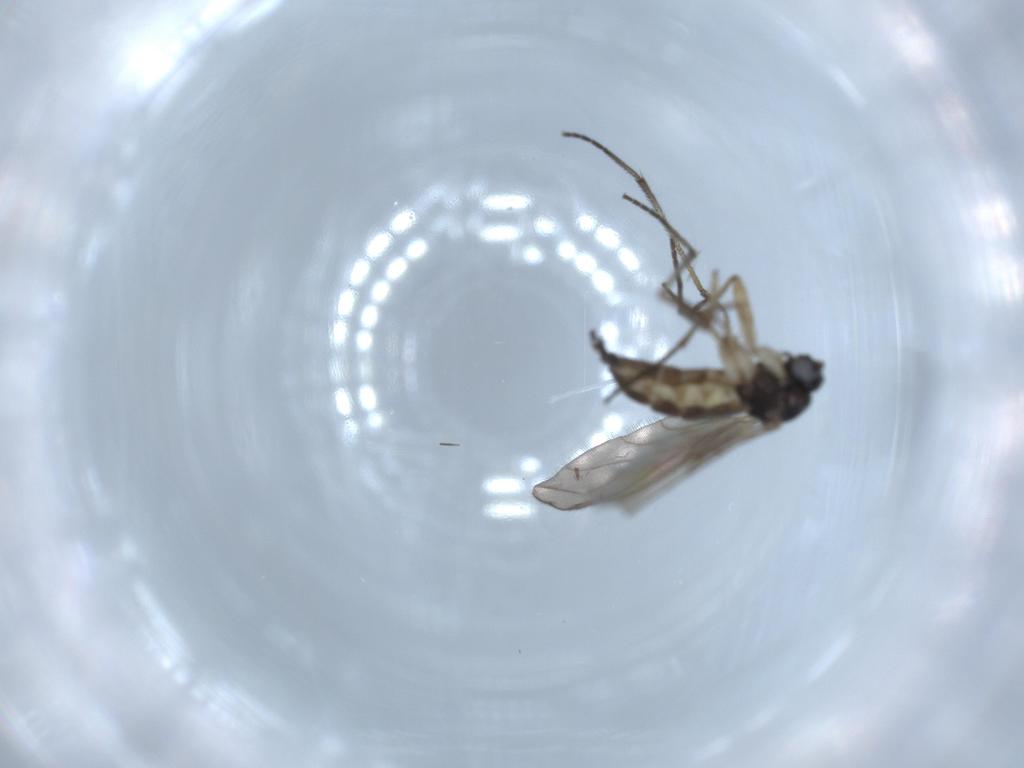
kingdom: Animalia
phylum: Arthropoda
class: Insecta
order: Diptera
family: Sciaridae
